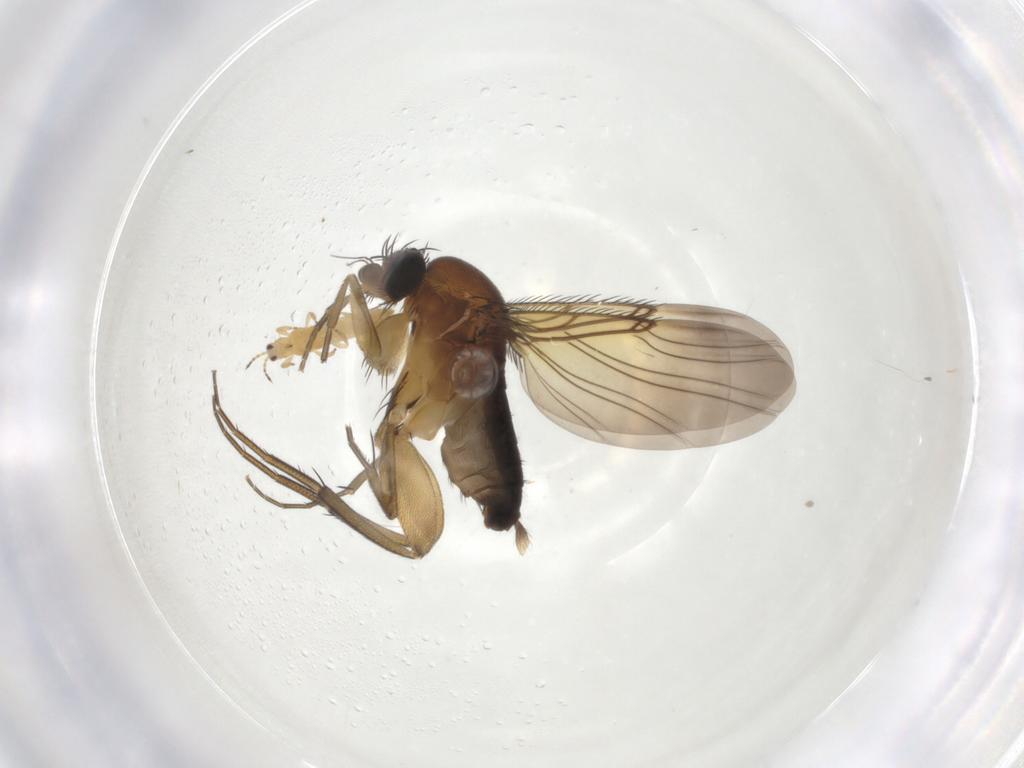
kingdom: Animalia
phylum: Arthropoda
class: Insecta
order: Diptera
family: Phoridae
